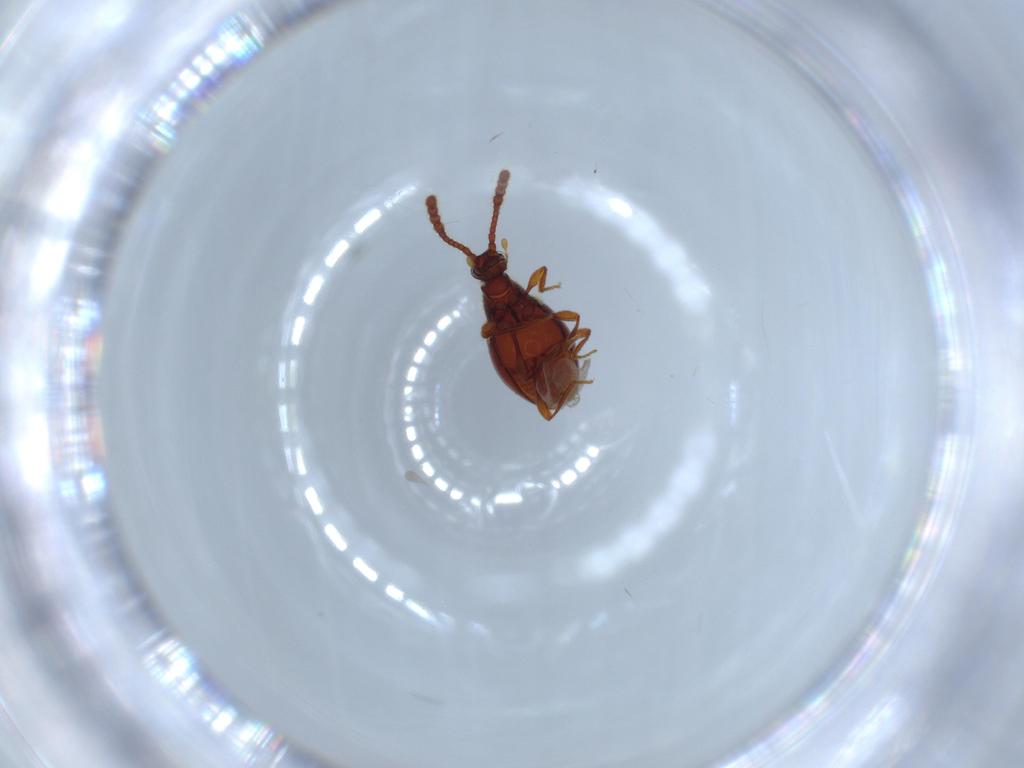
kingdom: Animalia
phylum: Arthropoda
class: Insecta
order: Coleoptera
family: Staphylinidae
